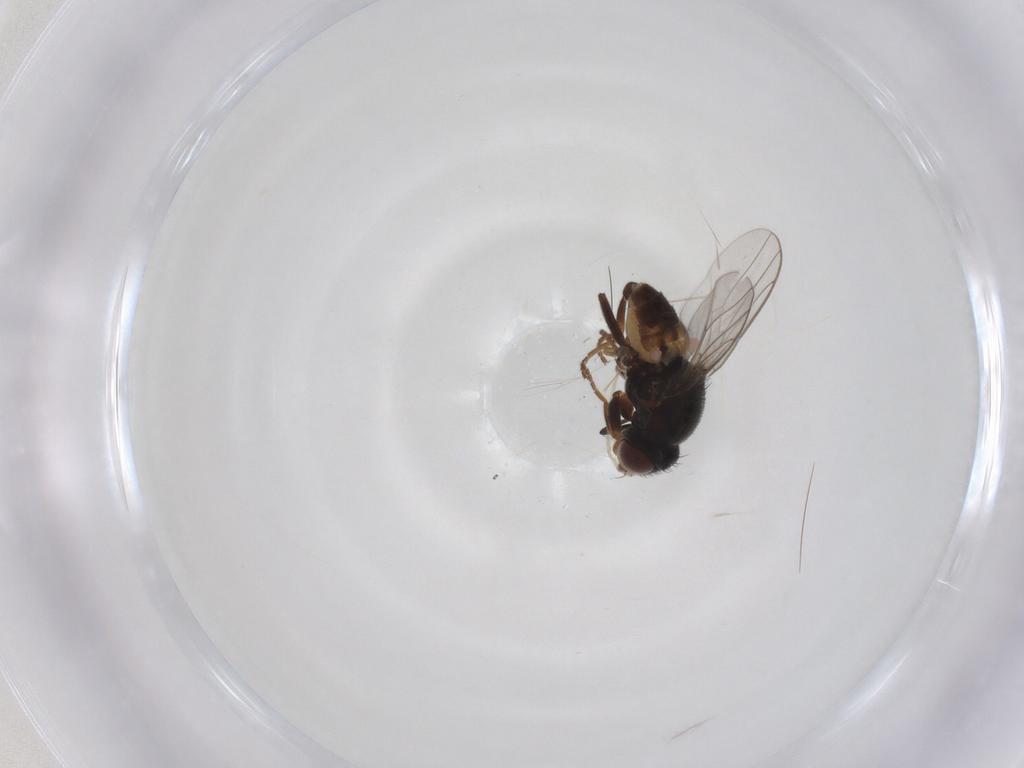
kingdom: Animalia
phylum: Arthropoda
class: Insecta
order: Diptera
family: Chloropidae
